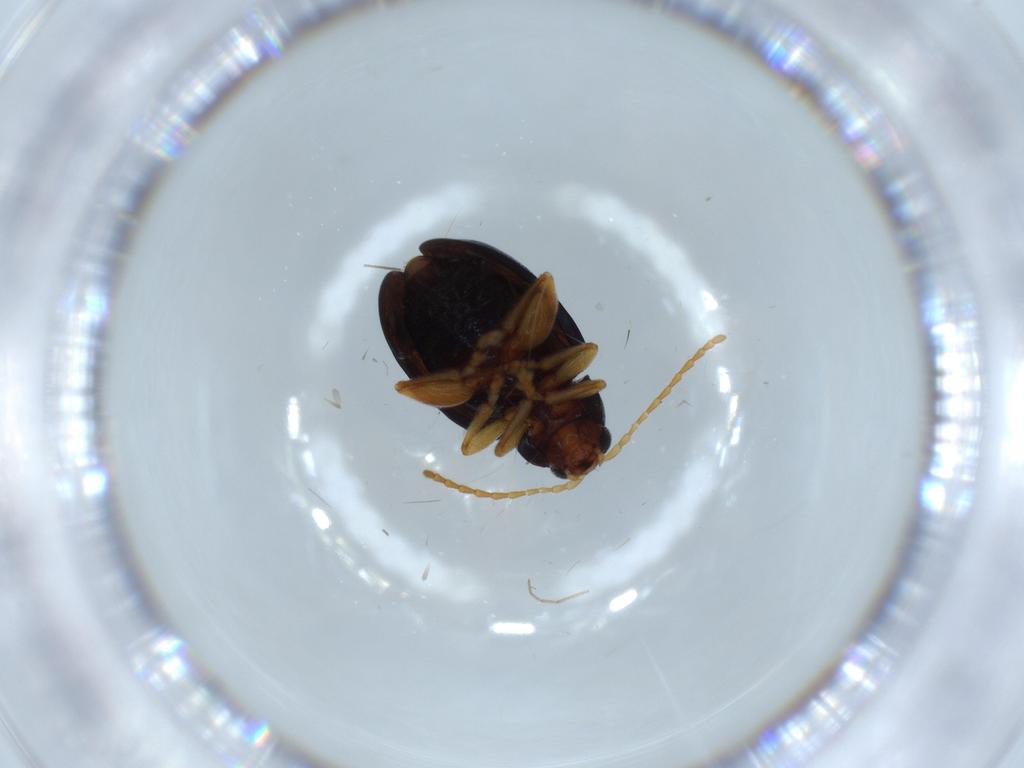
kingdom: Animalia
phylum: Arthropoda
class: Insecta
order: Coleoptera
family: Chrysomelidae
